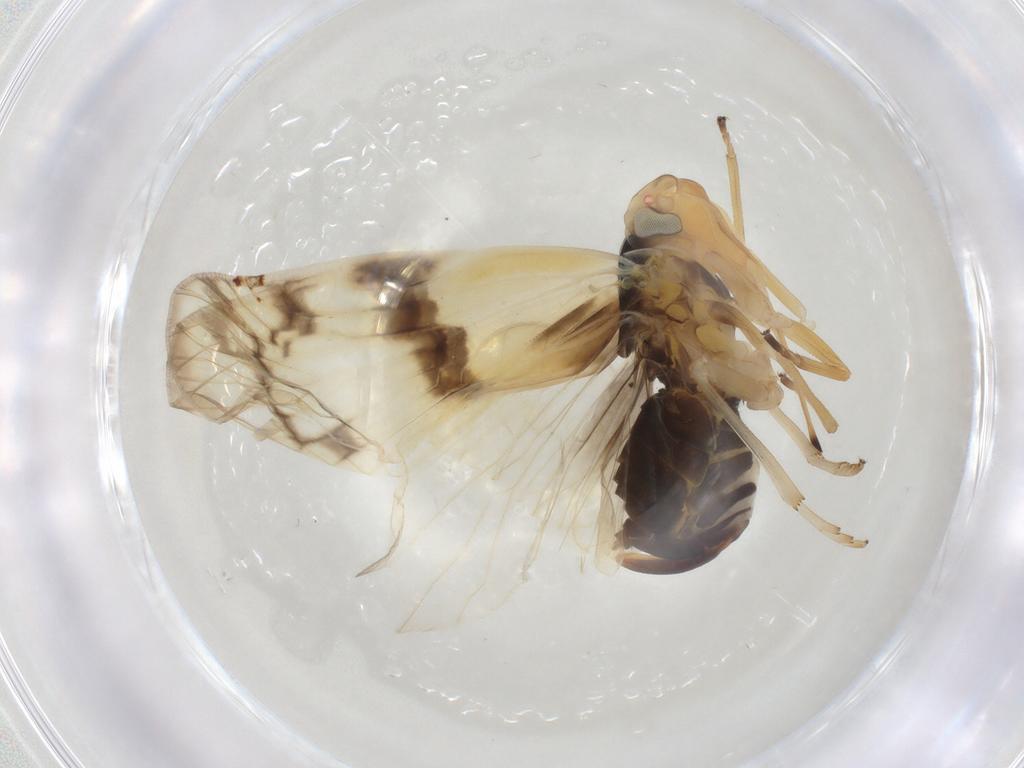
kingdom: Animalia
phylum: Arthropoda
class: Insecta
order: Hemiptera
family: Cixiidae
